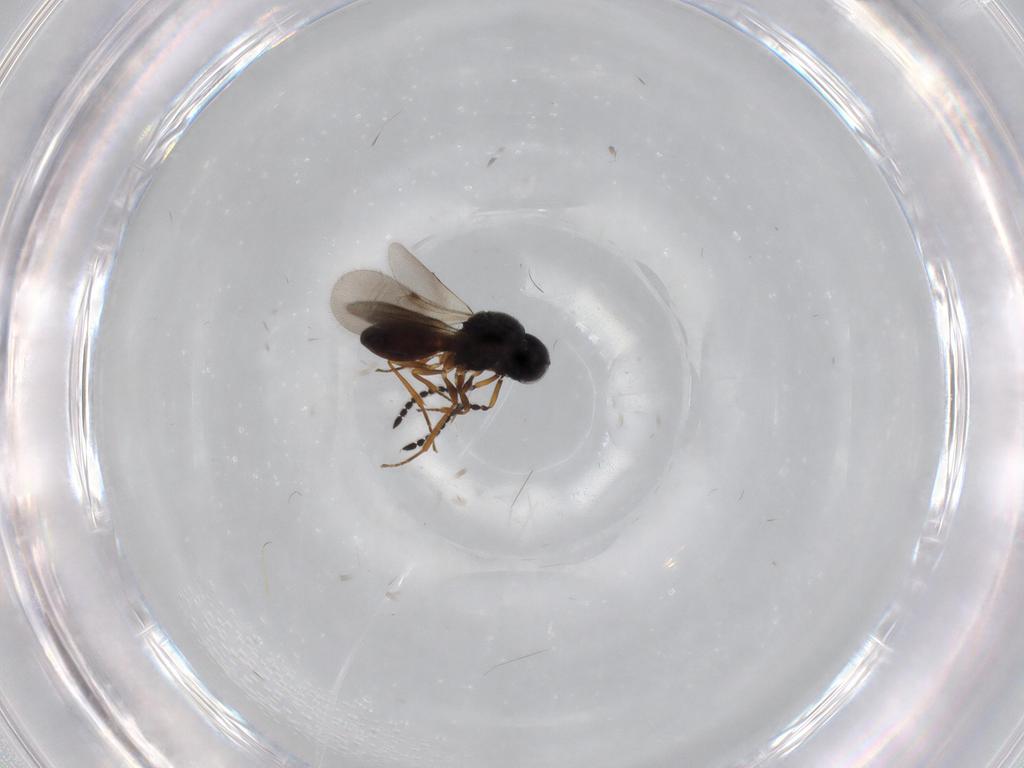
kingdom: Animalia
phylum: Arthropoda
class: Insecta
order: Hymenoptera
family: Scelionidae
